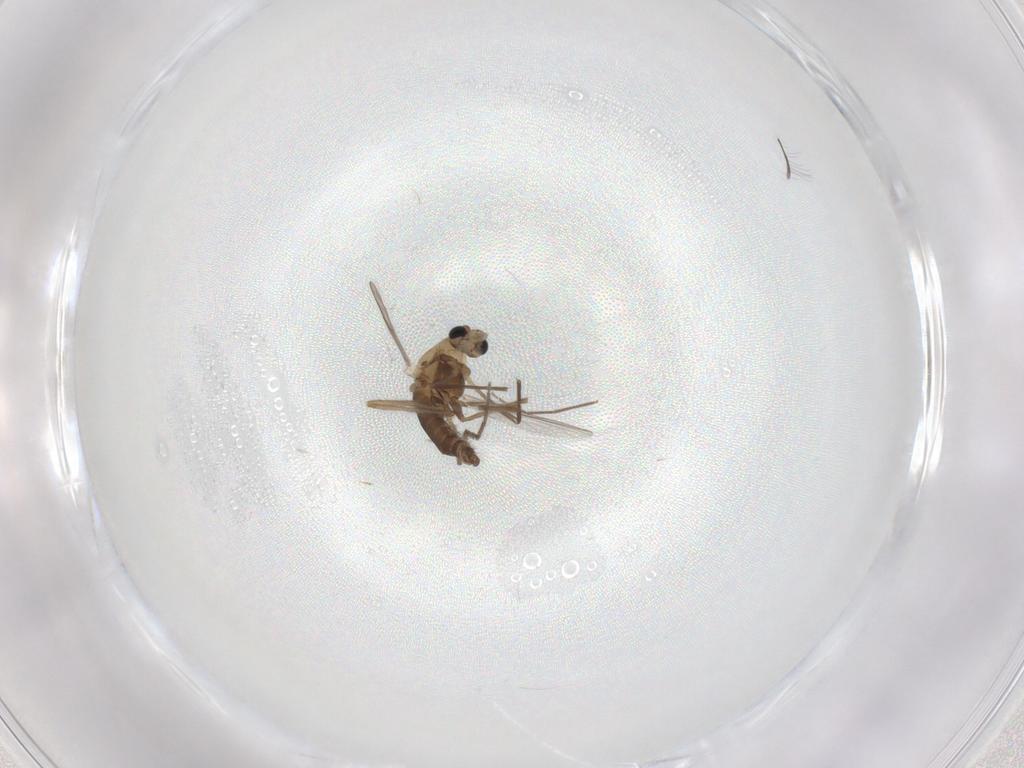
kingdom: Animalia
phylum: Arthropoda
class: Insecta
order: Diptera
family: Chironomidae
